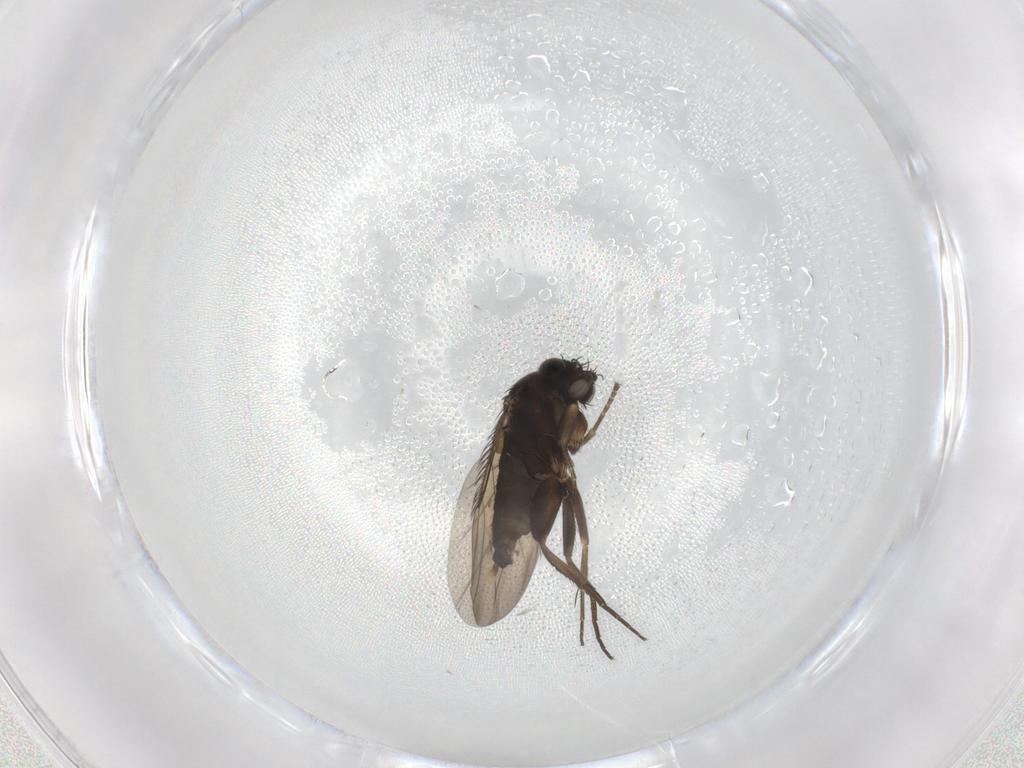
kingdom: Animalia
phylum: Arthropoda
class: Insecta
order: Diptera
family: Phoridae
